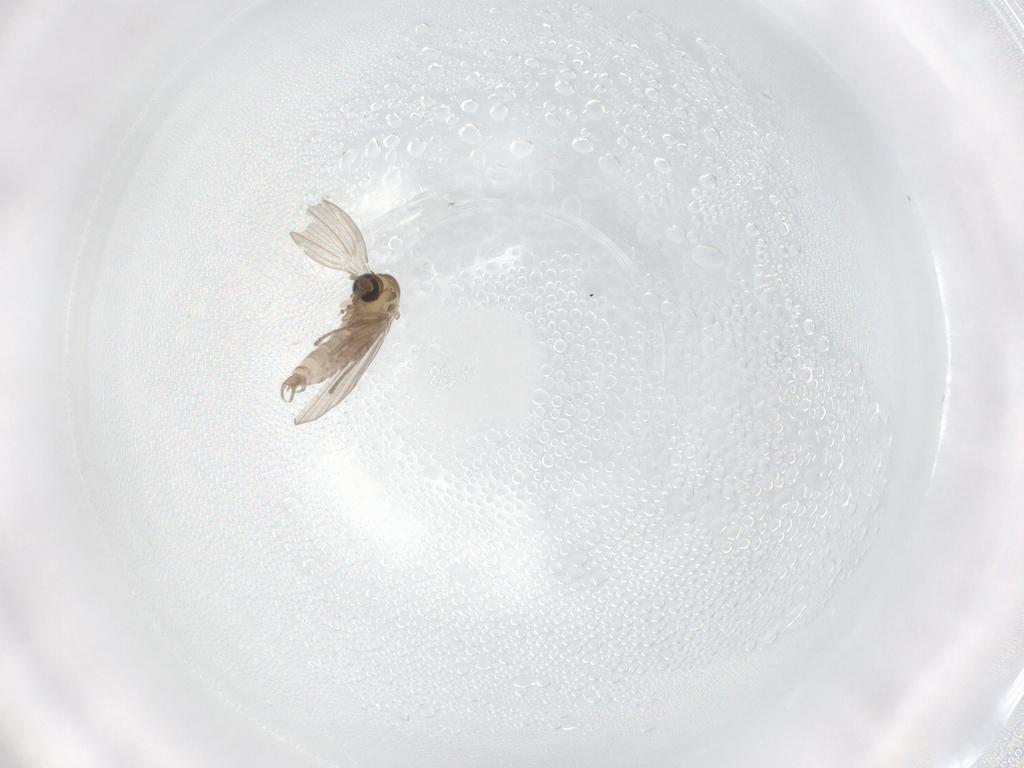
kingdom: Animalia
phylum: Arthropoda
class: Insecta
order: Diptera
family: Psychodidae
